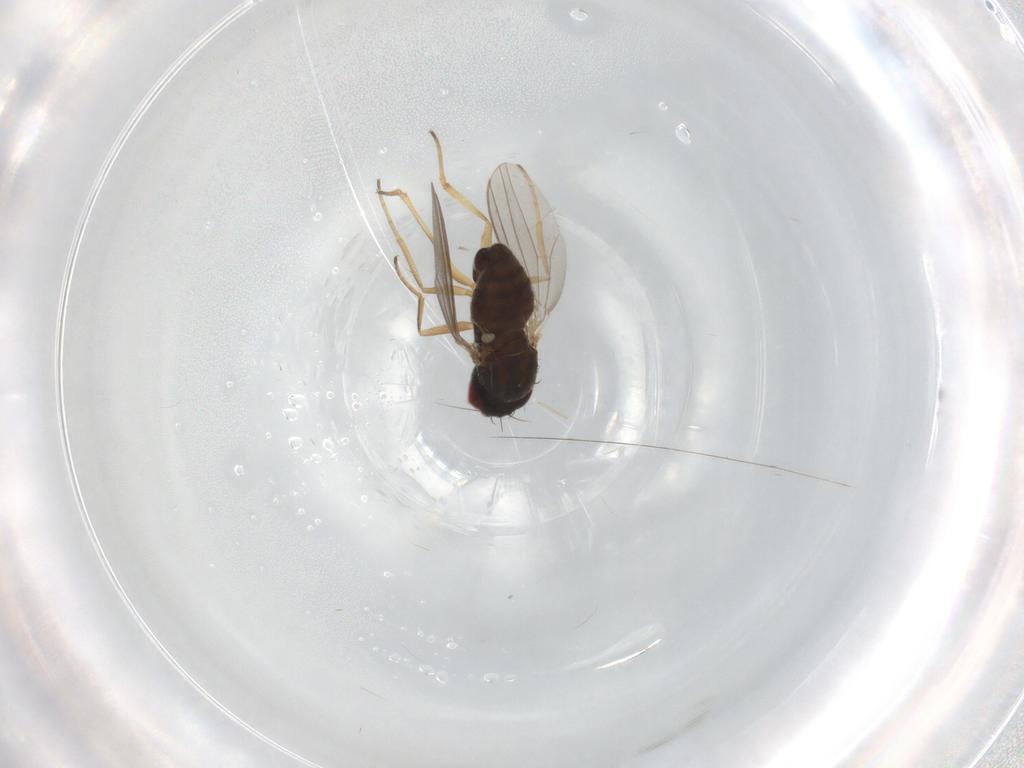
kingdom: Animalia
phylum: Arthropoda
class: Insecta
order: Diptera
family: Dolichopodidae
